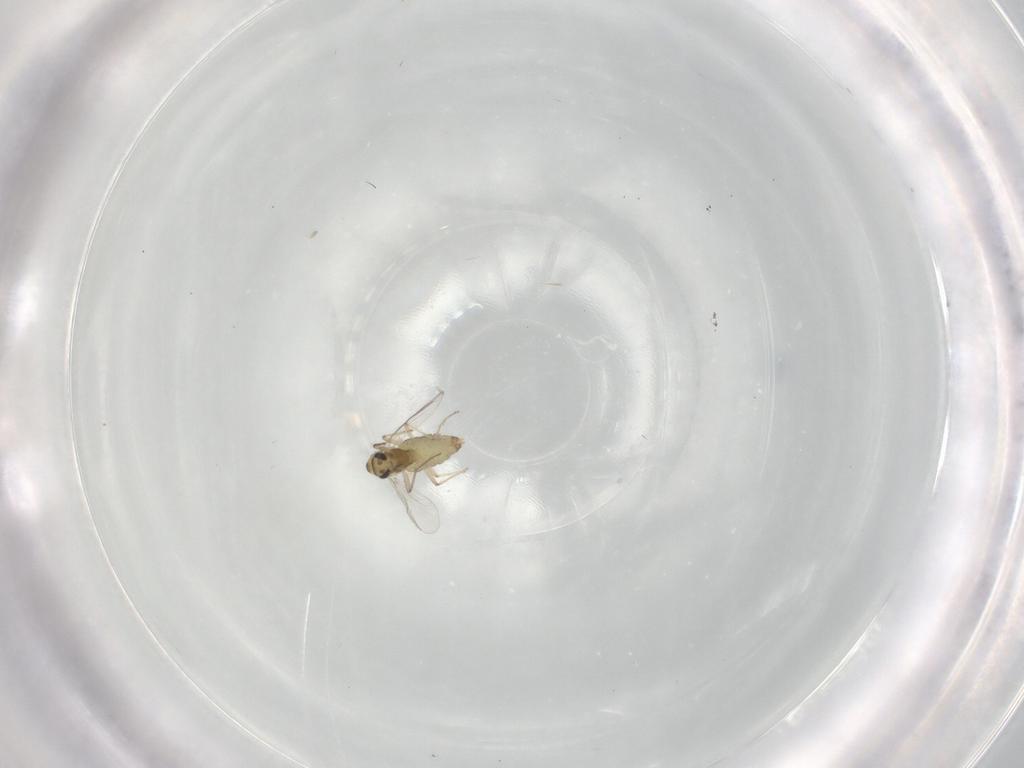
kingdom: Animalia
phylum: Arthropoda
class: Insecta
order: Diptera
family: Chironomidae
